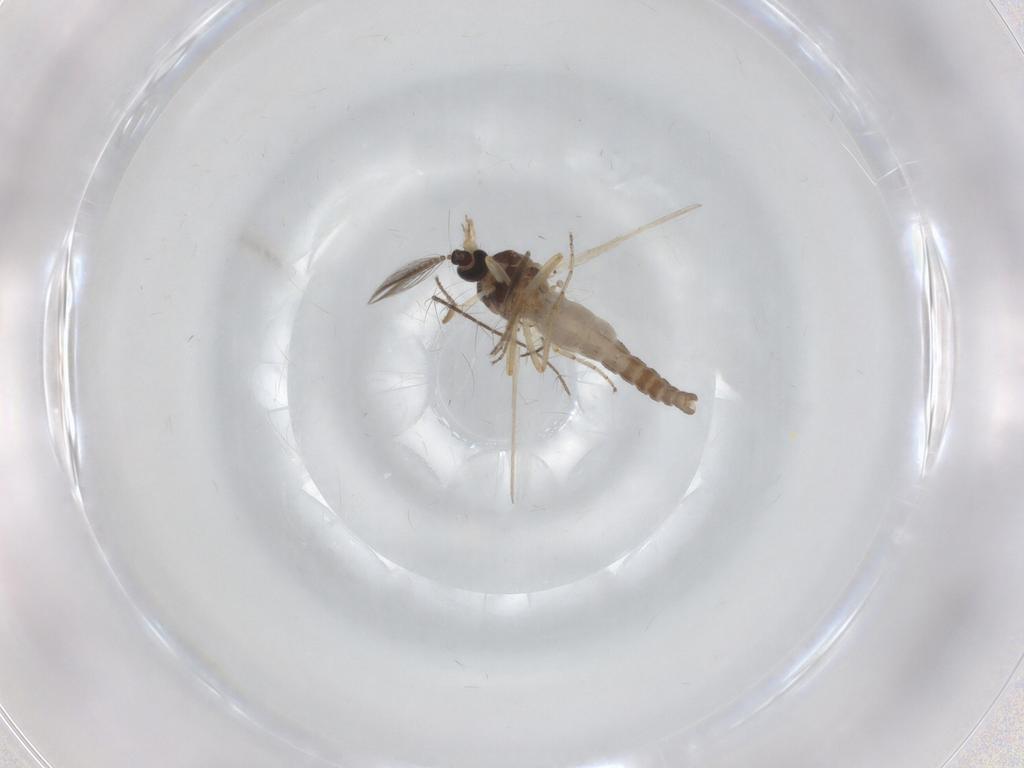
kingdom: Animalia
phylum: Arthropoda
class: Insecta
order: Diptera
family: Ceratopogonidae
